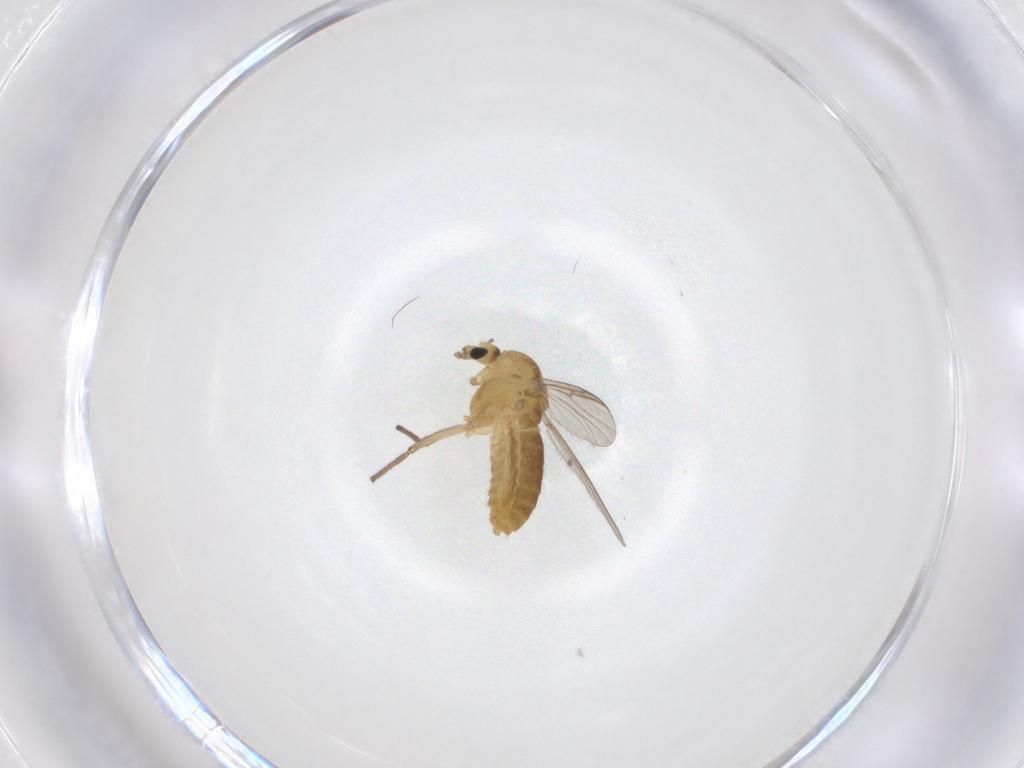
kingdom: Animalia
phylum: Arthropoda
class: Insecta
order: Diptera
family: Chironomidae
